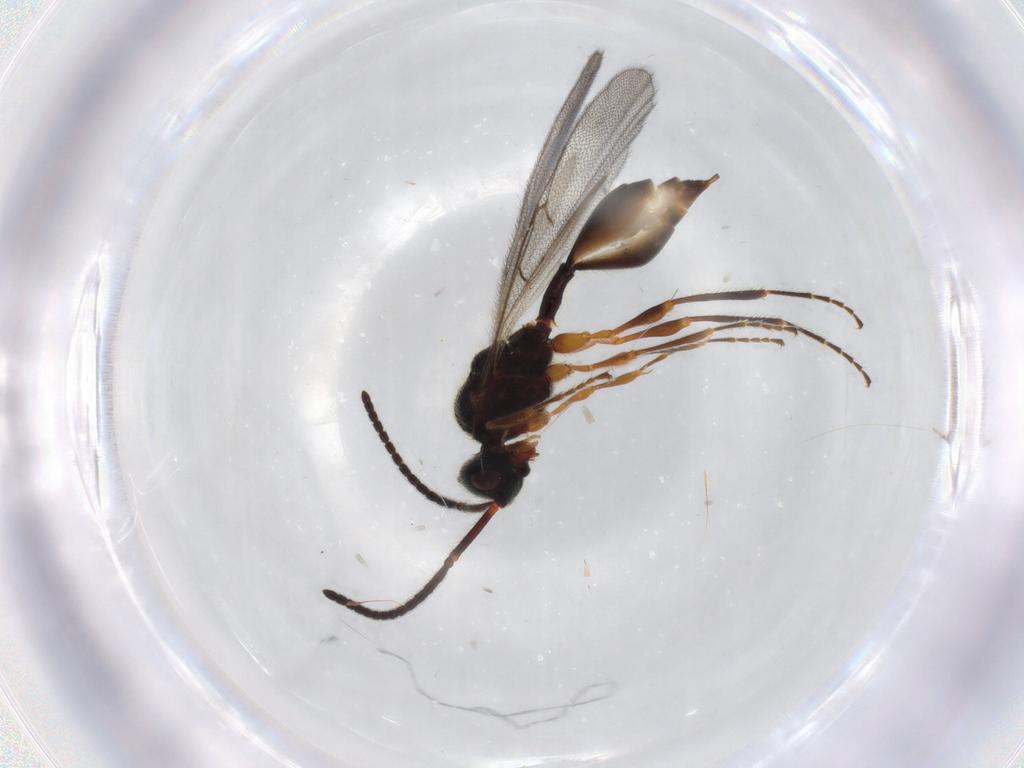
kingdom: Animalia
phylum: Arthropoda
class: Insecta
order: Hymenoptera
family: Diapriidae
